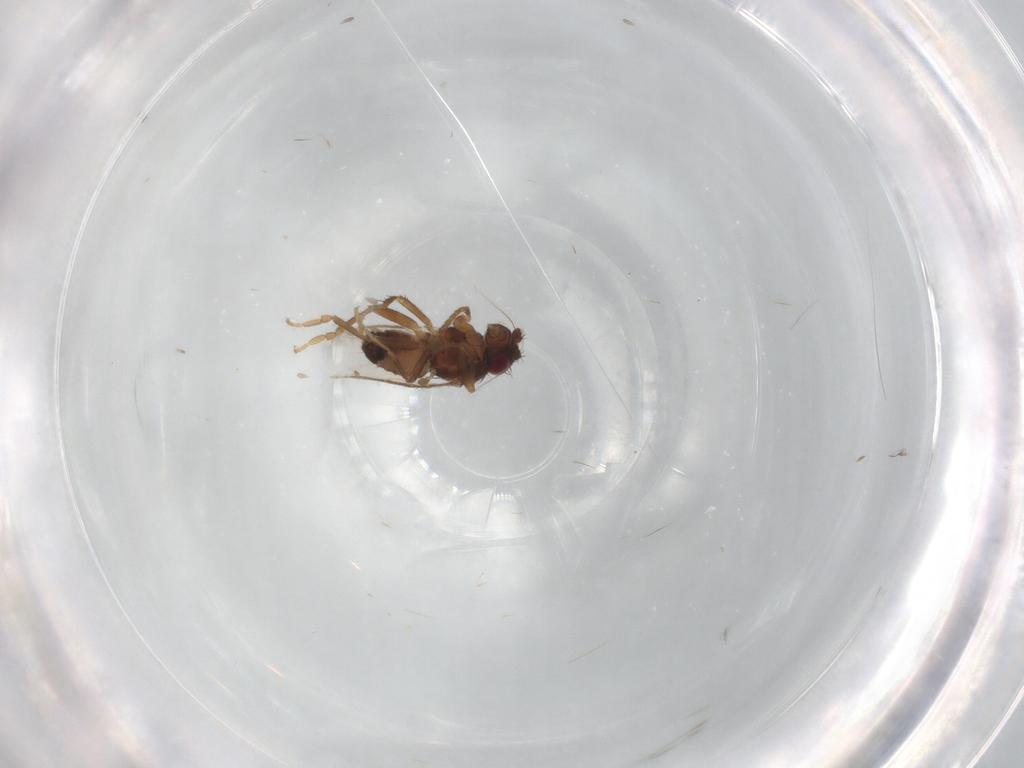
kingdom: Animalia
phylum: Arthropoda
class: Insecta
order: Diptera
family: Sphaeroceridae
